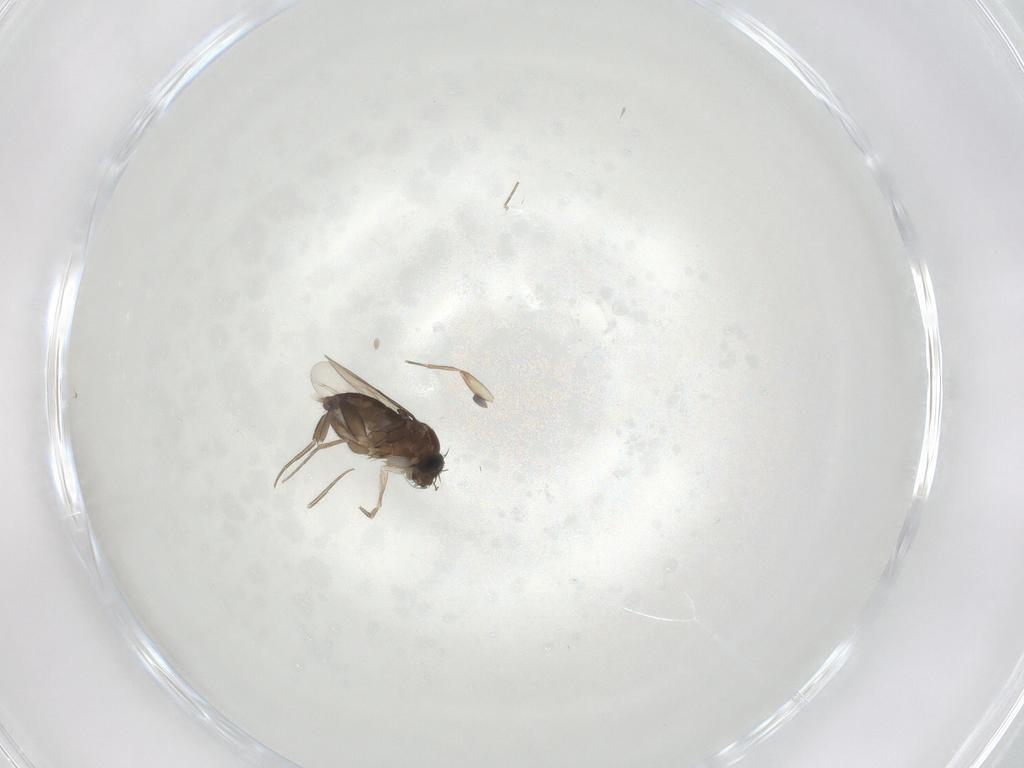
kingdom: Animalia
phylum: Arthropoda
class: Insecta
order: Diptera
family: Phoridae
